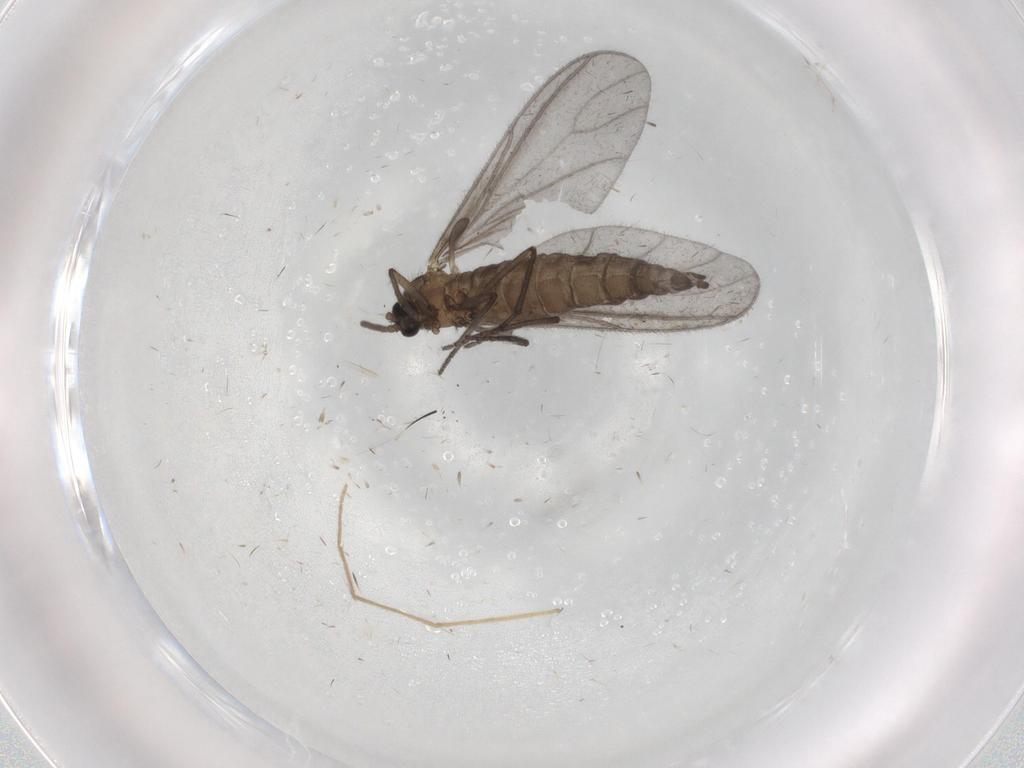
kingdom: Animalia
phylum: Arthropoda
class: Insecta
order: Diptera
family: Sciaridae
